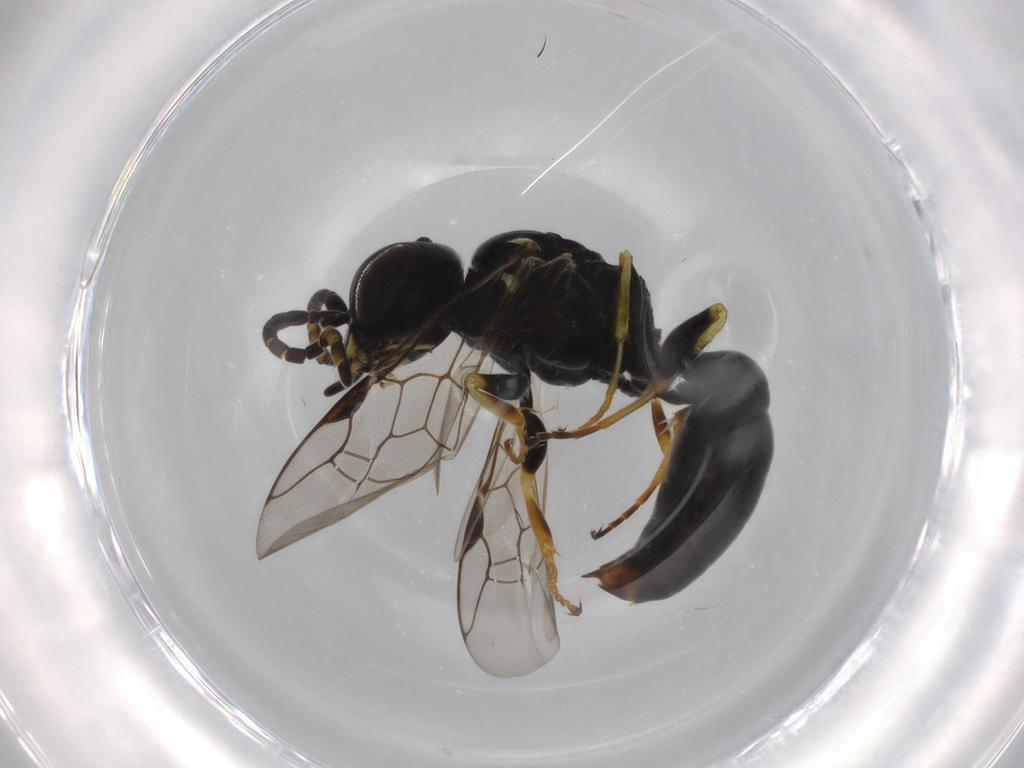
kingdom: Animalia
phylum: Arthropoda
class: Insecta
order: Hymenoptera
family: Crabronidae
